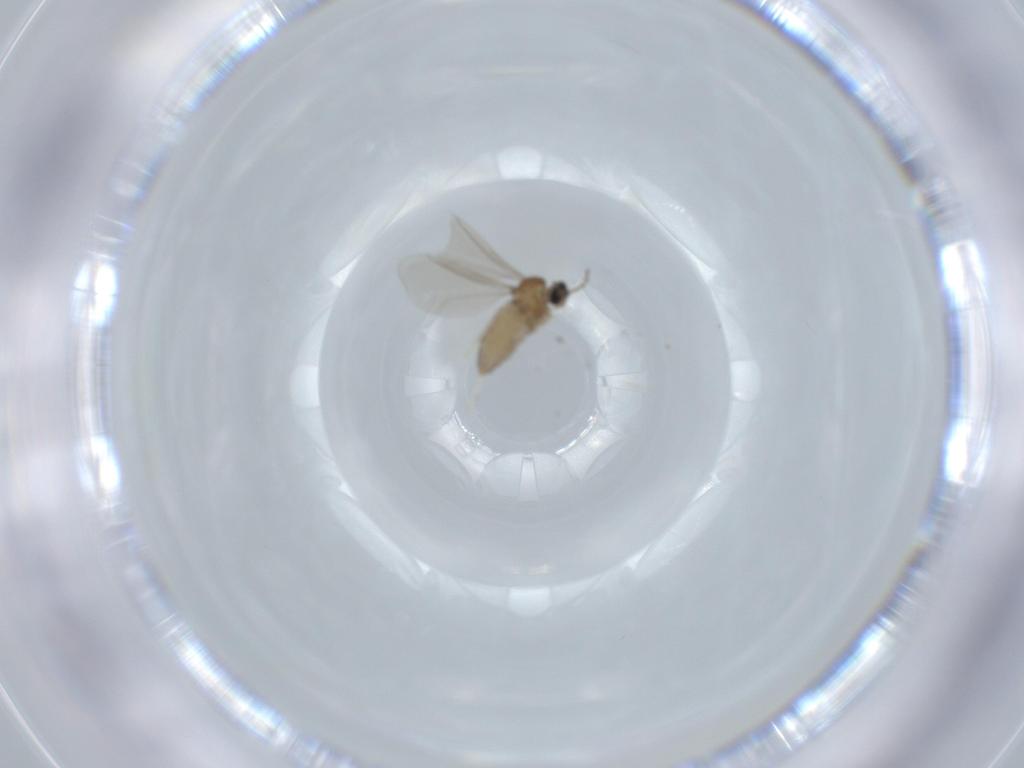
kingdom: Animalia
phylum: Arthropoda
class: Insecta
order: Diptera
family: Cecidomyiidae
